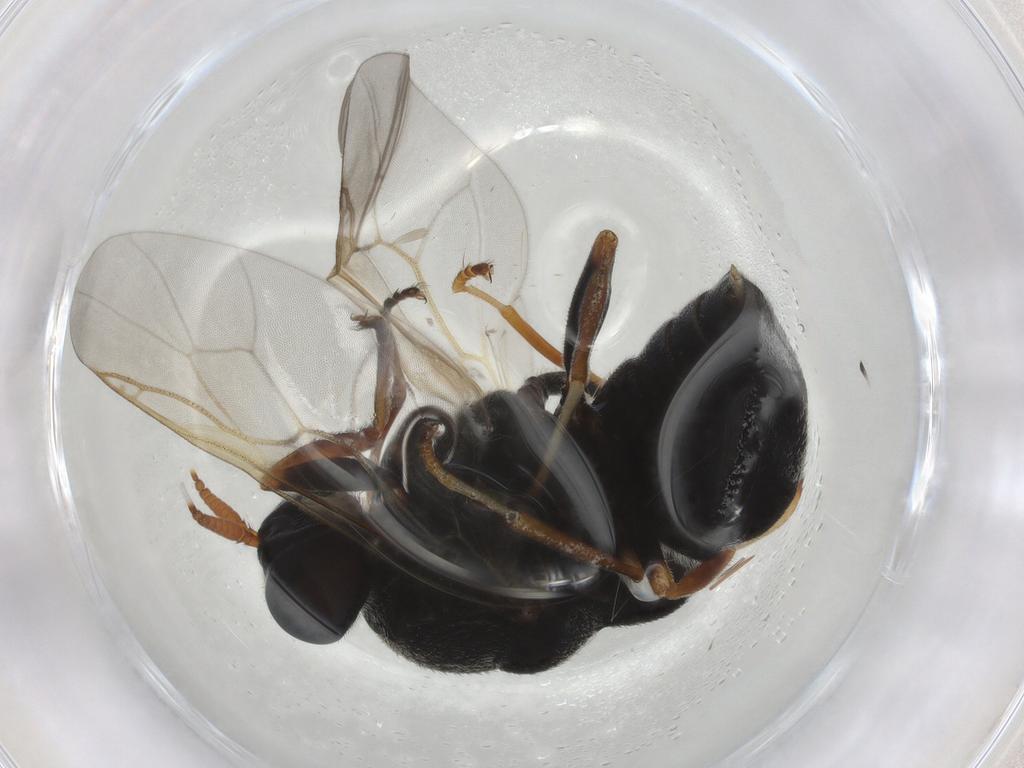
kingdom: Animalia
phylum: Arthropoda
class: Insecta
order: Diptera
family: Stratiomyidae
